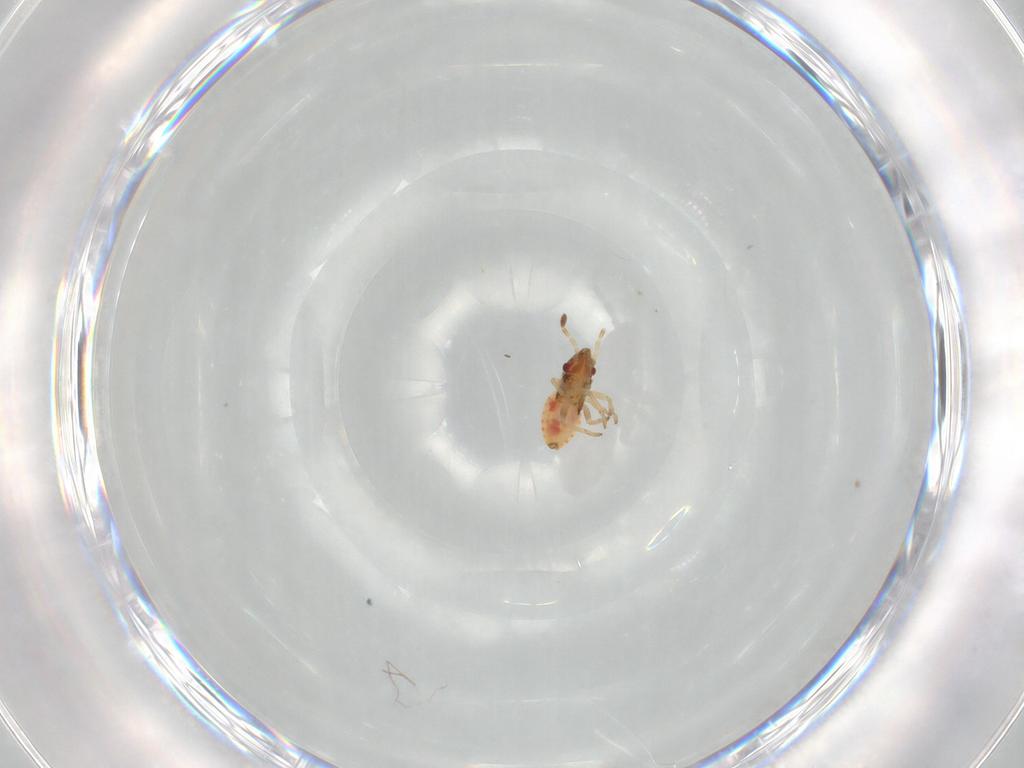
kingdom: Animalia
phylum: Arthropoda
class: Insecta
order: Hemiptera
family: Lygaeidae
